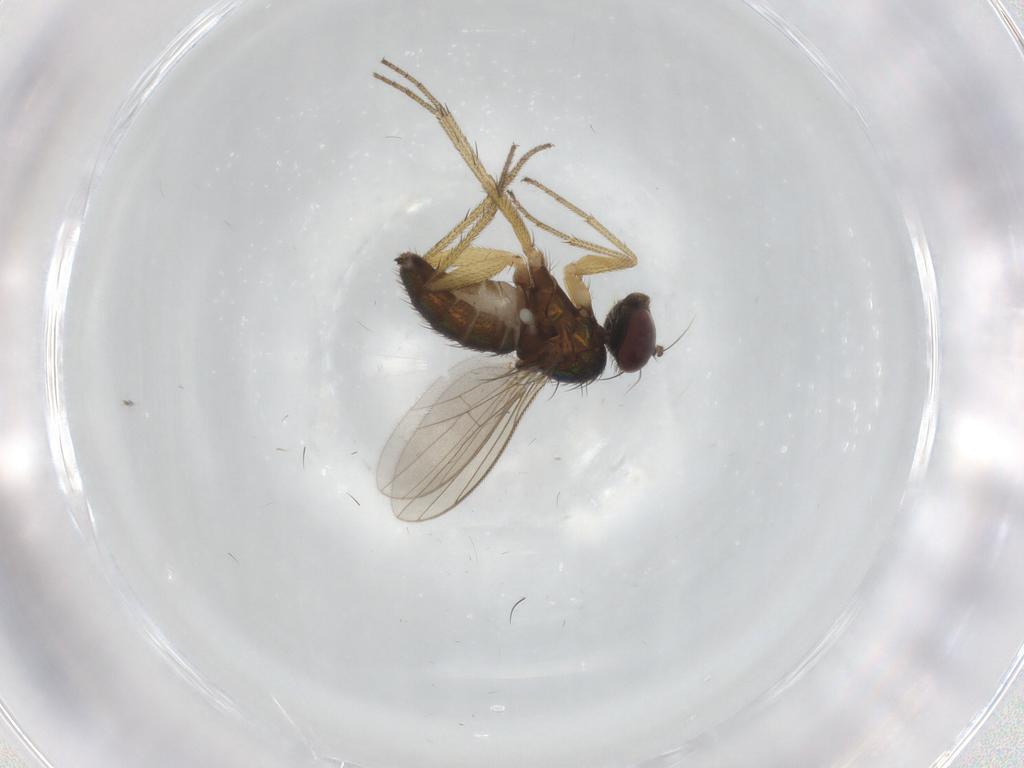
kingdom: Animalia
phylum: Arthropoda
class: Insecta
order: Diptera
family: Dolichopodidae
